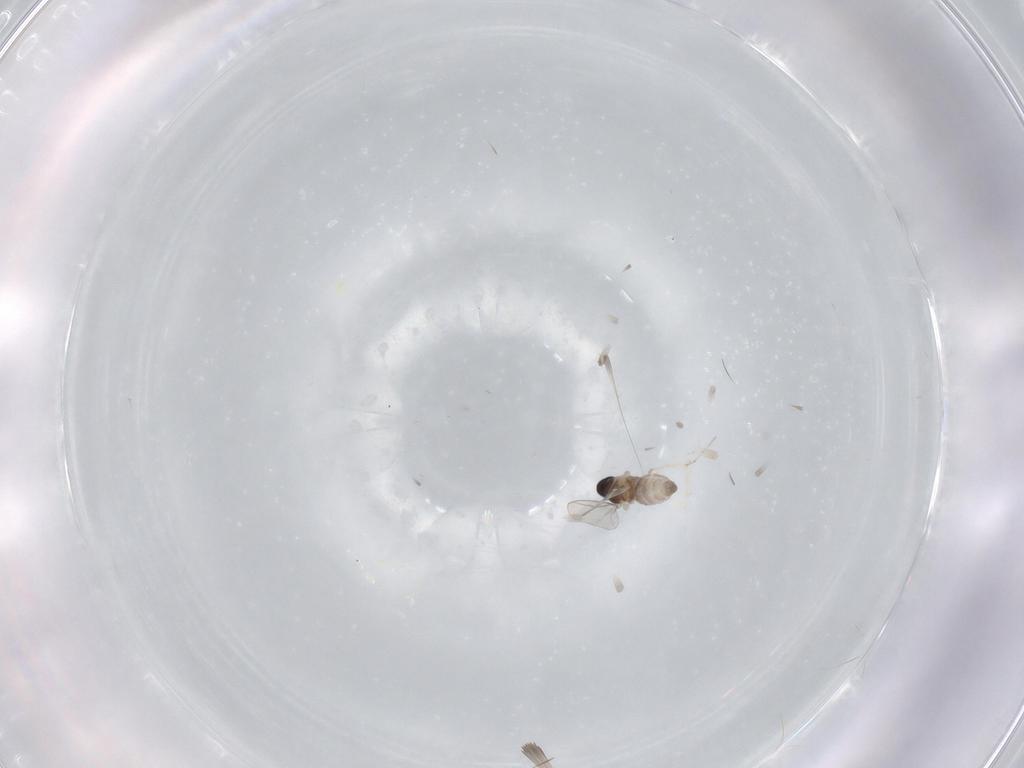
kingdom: Animalia
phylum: Arthropoda
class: Insecta
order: Diptera
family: Cecidomyiidae
